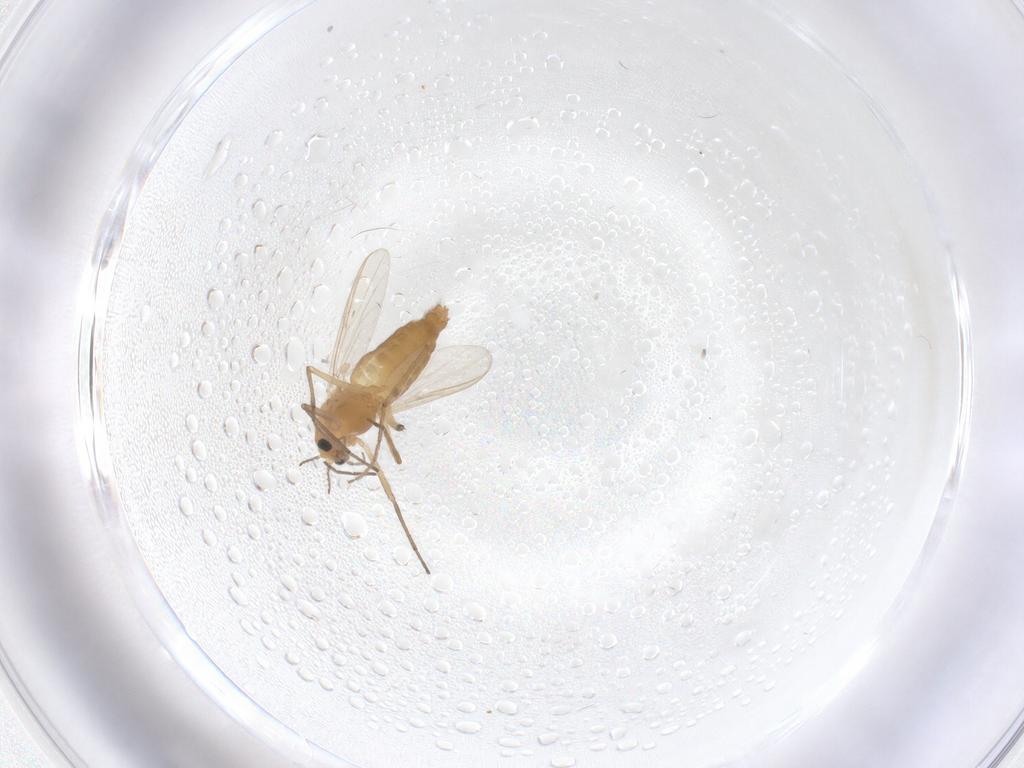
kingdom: Animalia
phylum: Arthropoda
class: Insecta
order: Diptera
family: Chironomidae
